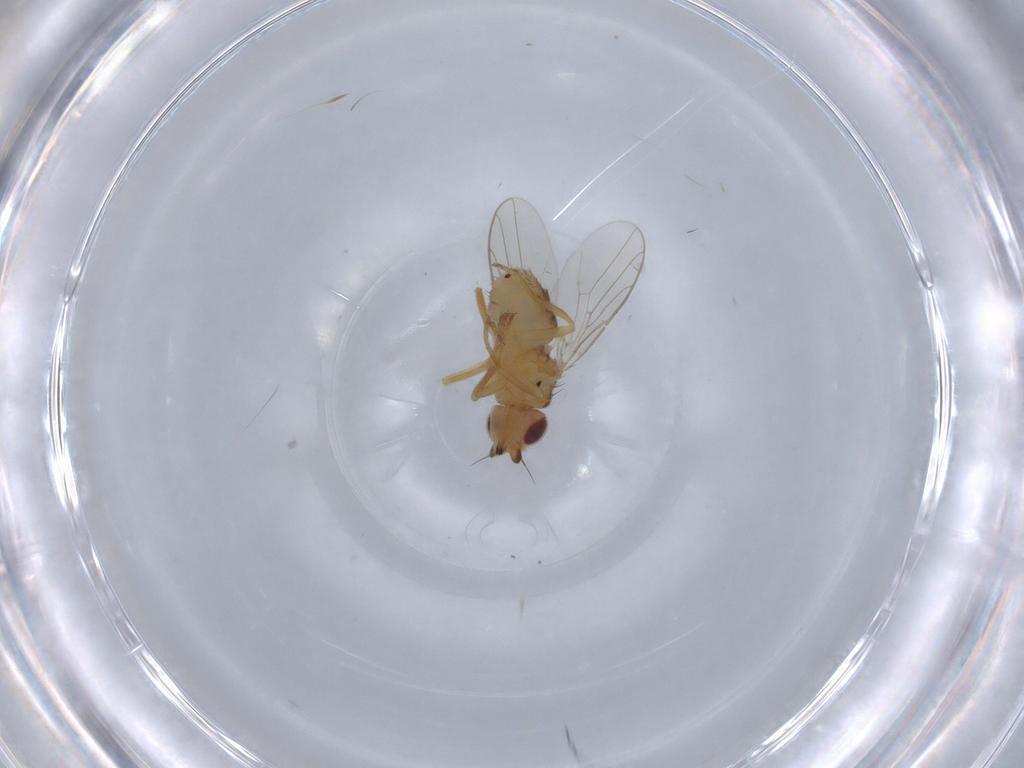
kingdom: Animalia
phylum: Arthropoda
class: Insecta
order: Diptera
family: Chloropidae
